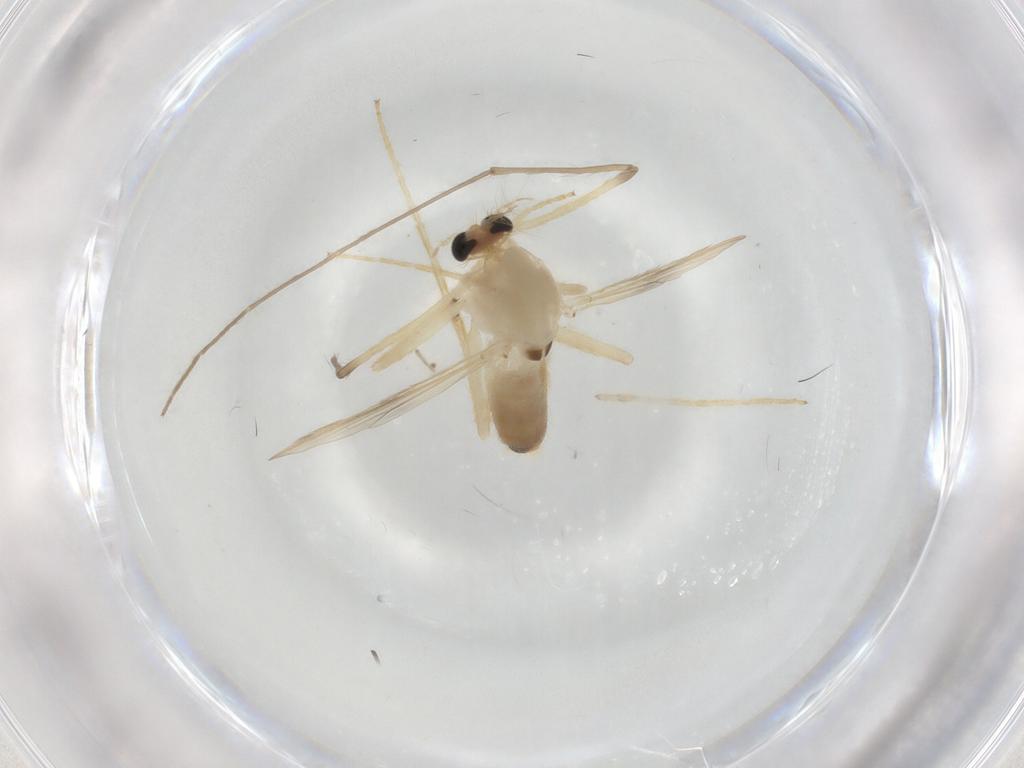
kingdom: Animalia
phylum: Arthropoda
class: Insecta
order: Diptera
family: Chironomidae
